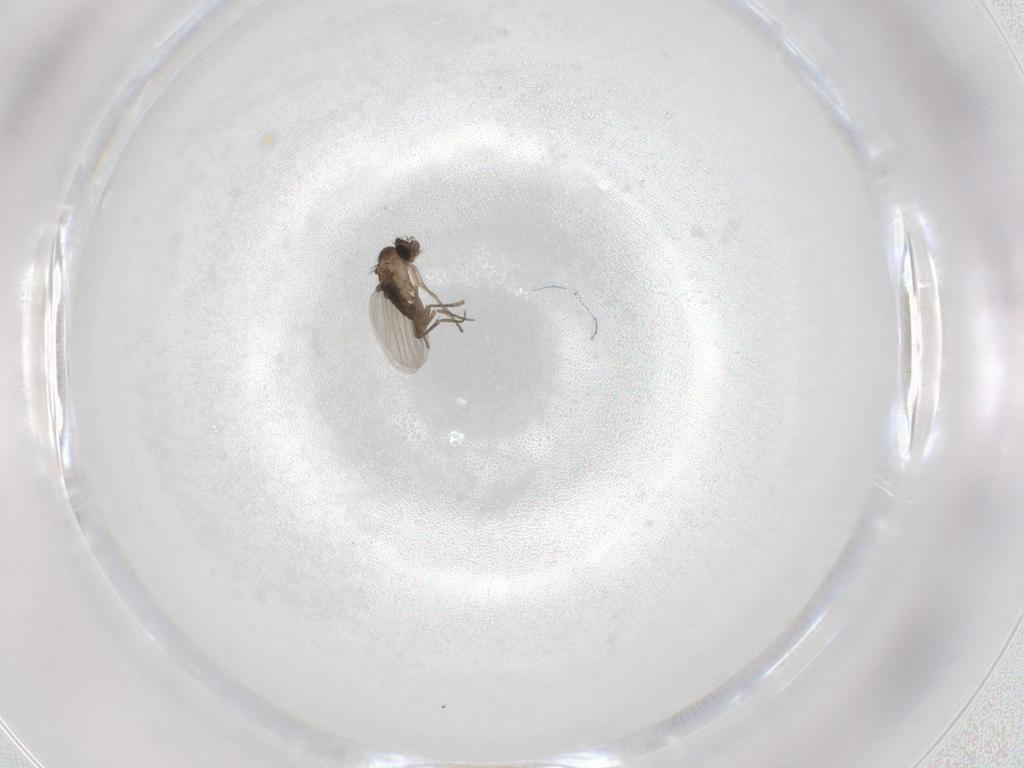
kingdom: Animalia
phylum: Arthropoda
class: Insecta
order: Diptera
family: Phoridae
